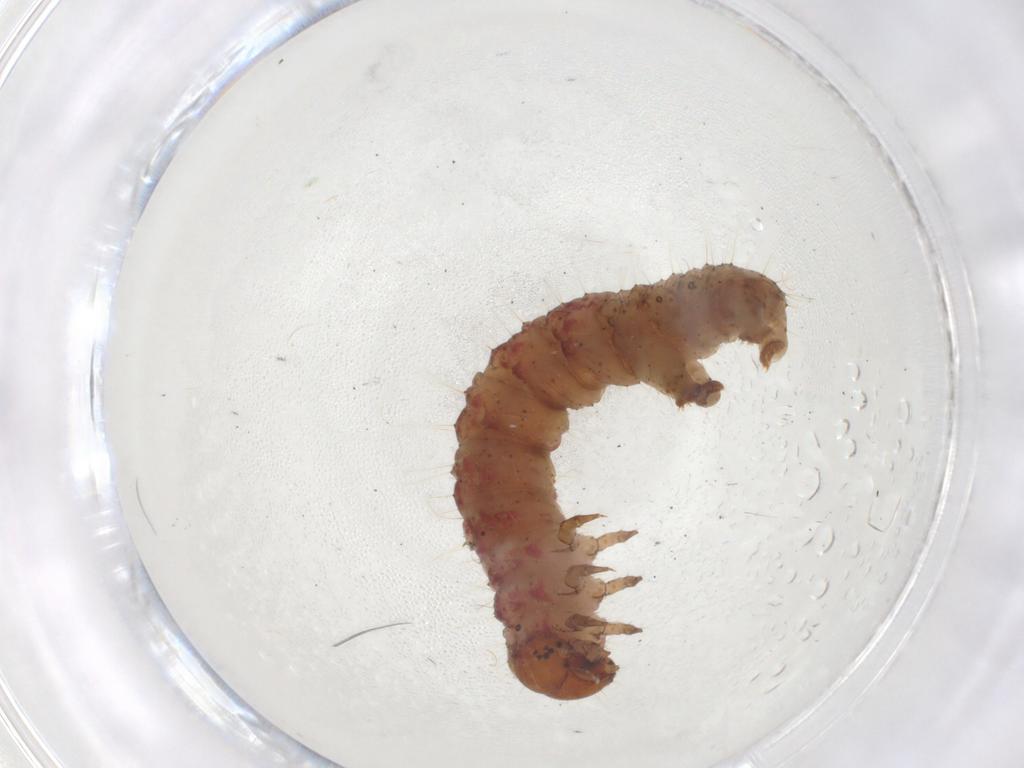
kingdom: Animalia
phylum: Arthropoda
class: Insecta
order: Lepidoptera
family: Geometridae
